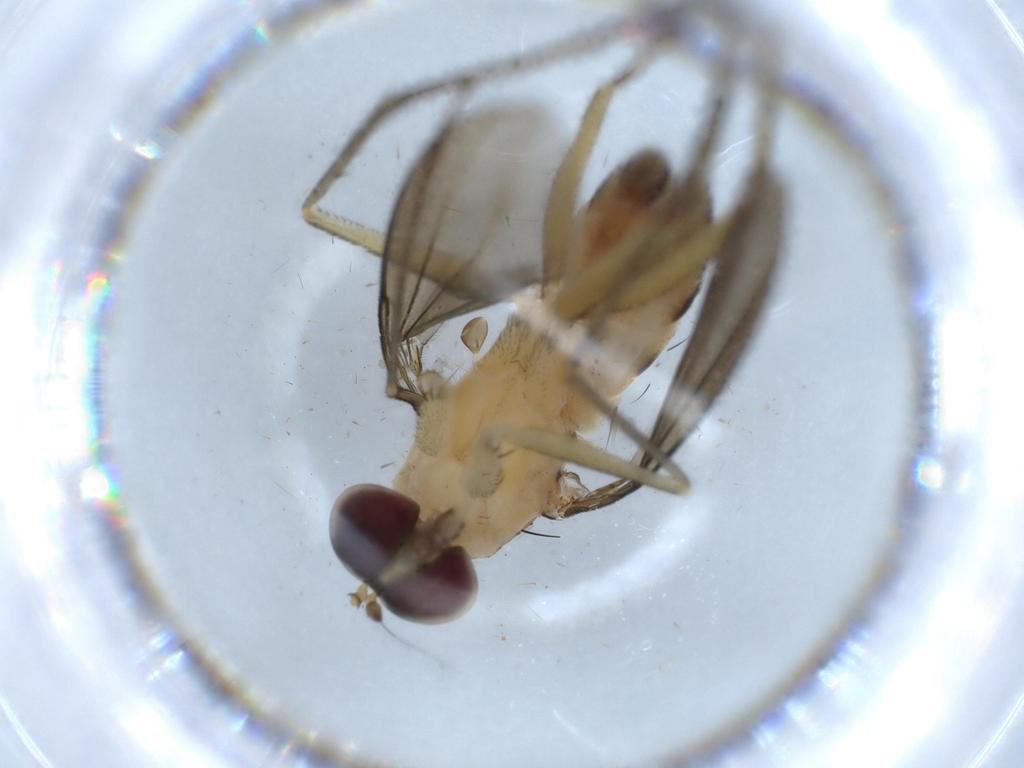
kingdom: Animalia
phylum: Arthropoda
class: Insecta
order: Diptera
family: Dolichopodidae
